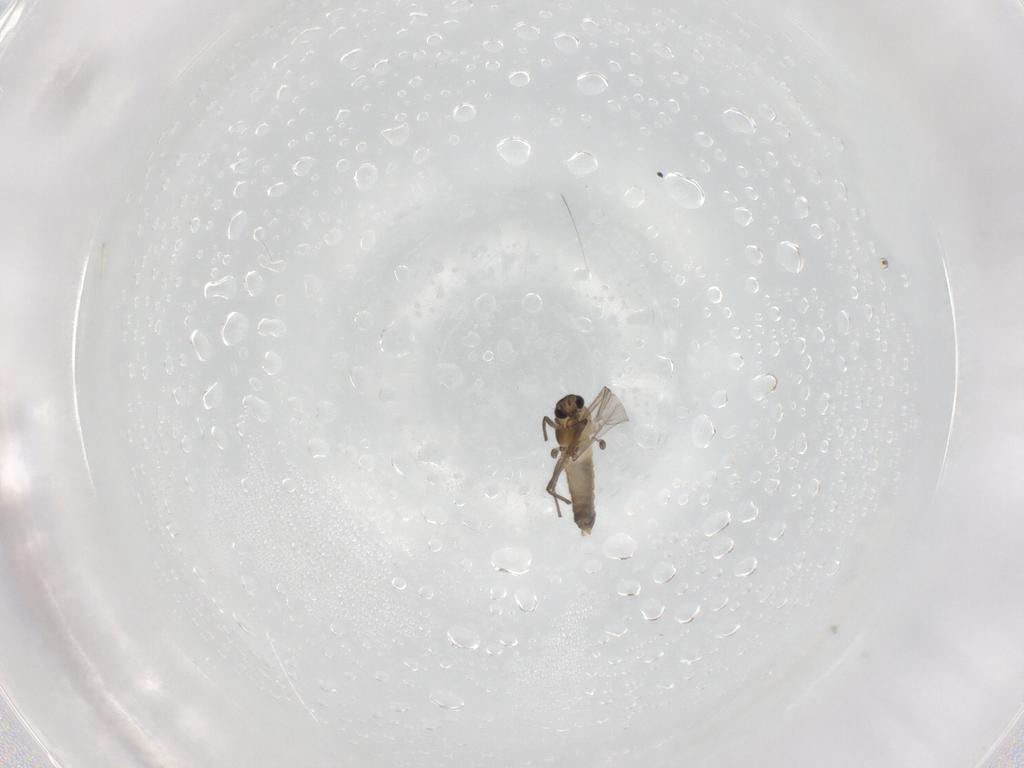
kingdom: Animalia
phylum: Arthropoda
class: Insecta
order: Diptera
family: Chironomidae
